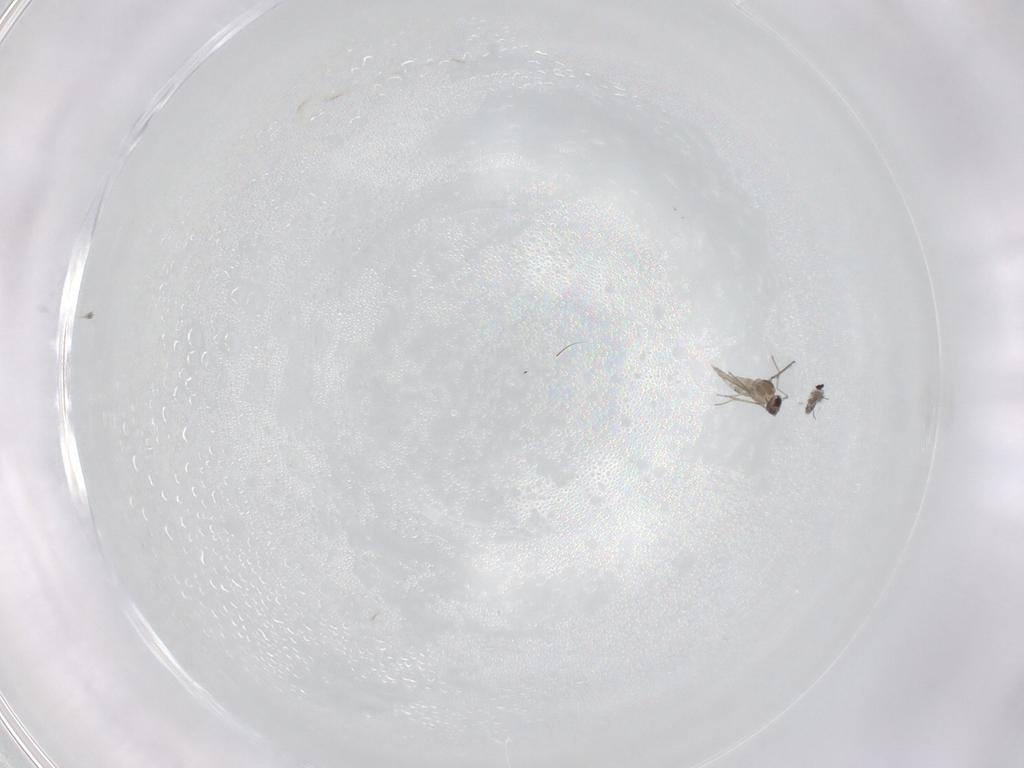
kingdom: Animalia
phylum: Arthropoda
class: Insecta
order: Diptera
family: Cecidomyiidae
